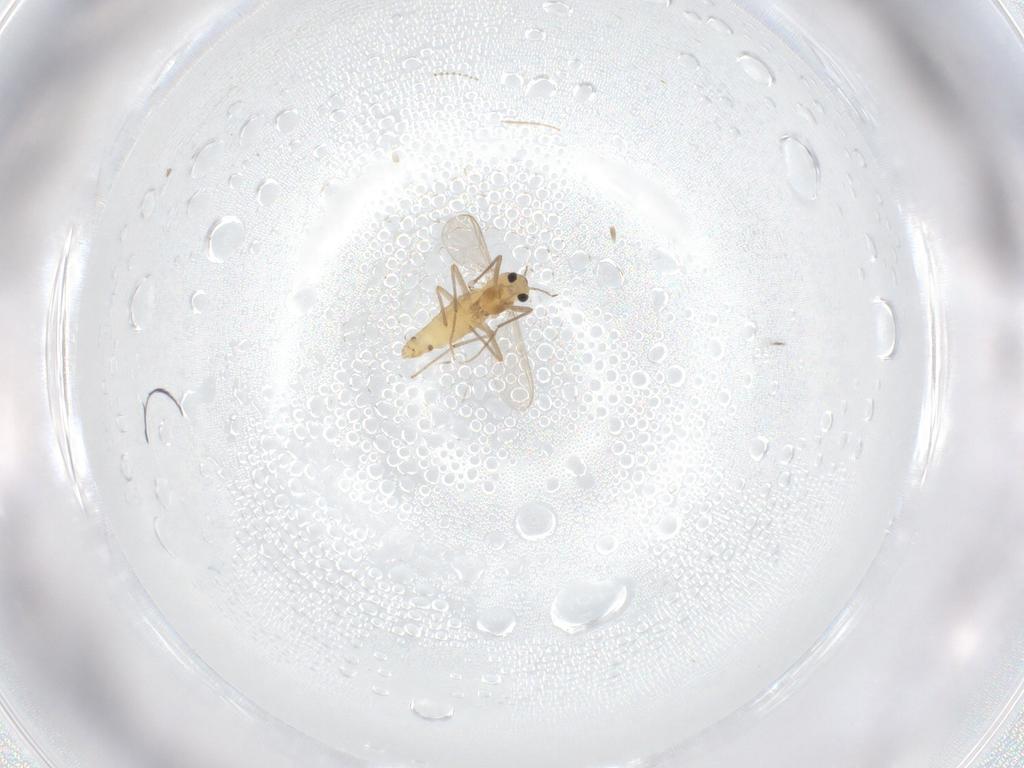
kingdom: Animalia
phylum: Arthropoda
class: Insecta
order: Diptera
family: Chironomidae
